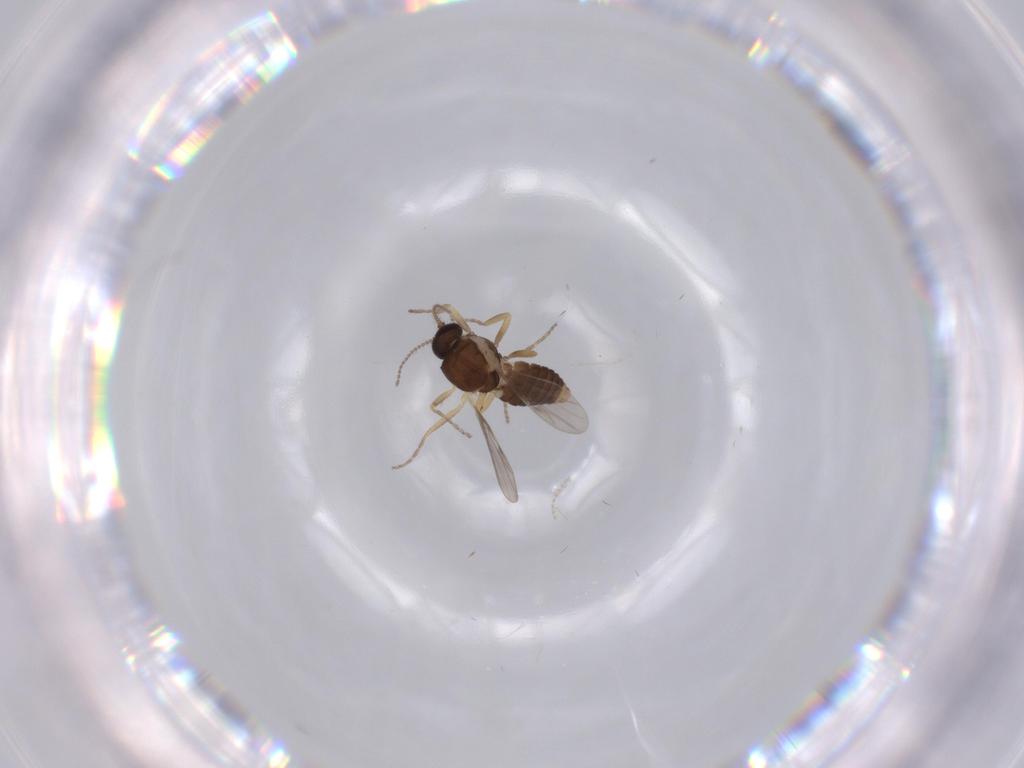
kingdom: Animalia
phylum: Arthropoda
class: Insecta
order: Diptera
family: Ceratopogonidae
